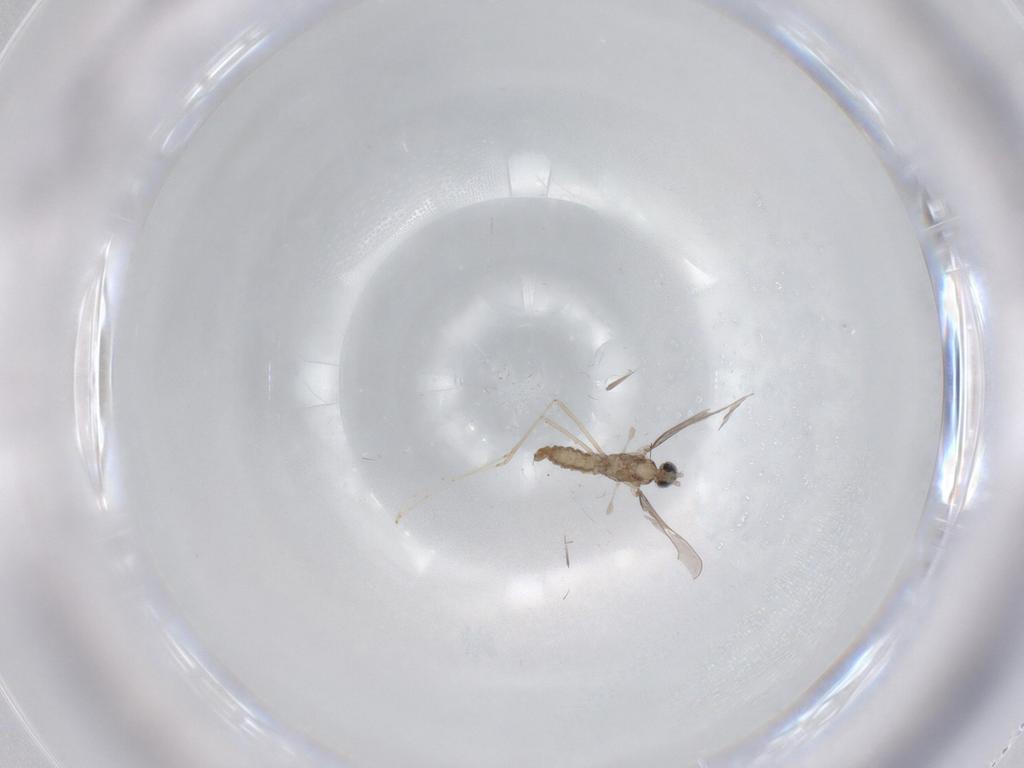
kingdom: Animalia
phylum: Arthropoda
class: Insecta
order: Diptera
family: Cecidomyiidae
